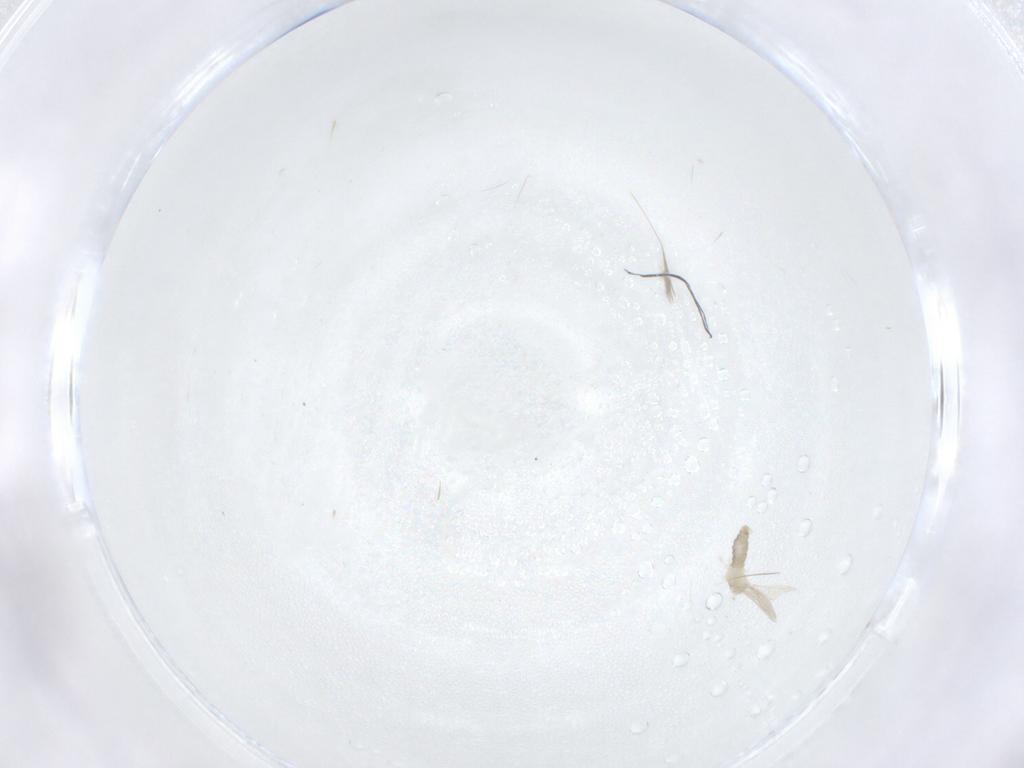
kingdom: Animalia
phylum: Arthropoda
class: Insecta
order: Diptera
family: Cecidomyiidae
